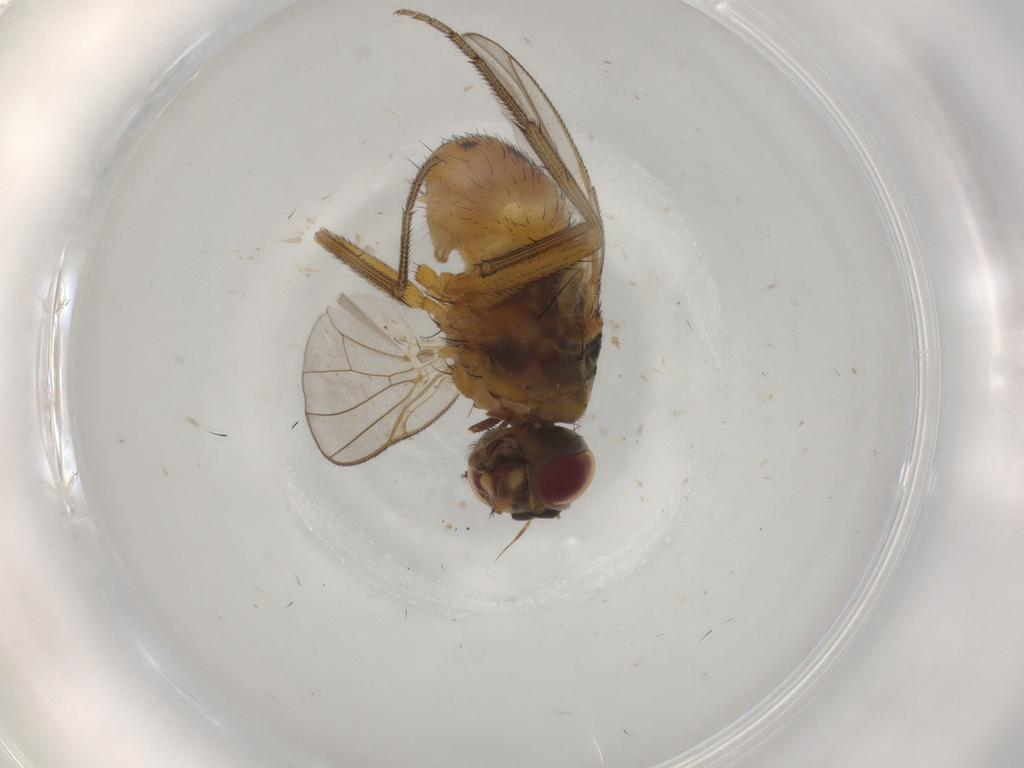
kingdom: Animalia
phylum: Arthropoda
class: Insecta
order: Diptera
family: Muscidae
